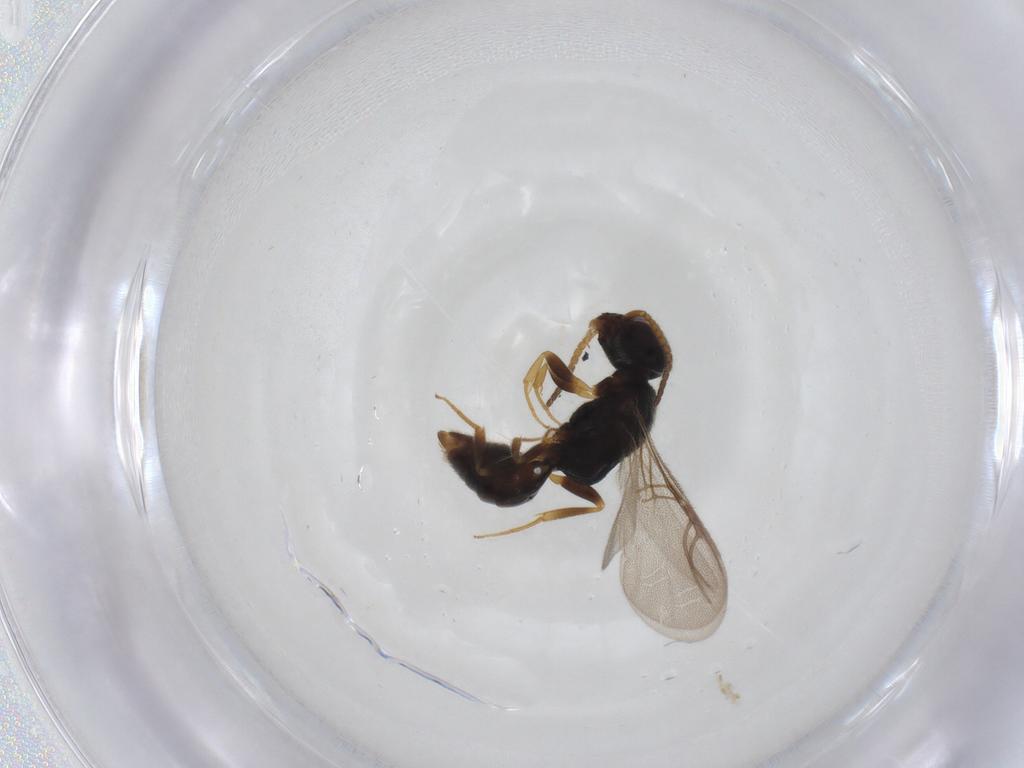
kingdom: Animalia
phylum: Arthropoda
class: Insecta
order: Hymenoptera
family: Bethylidae
